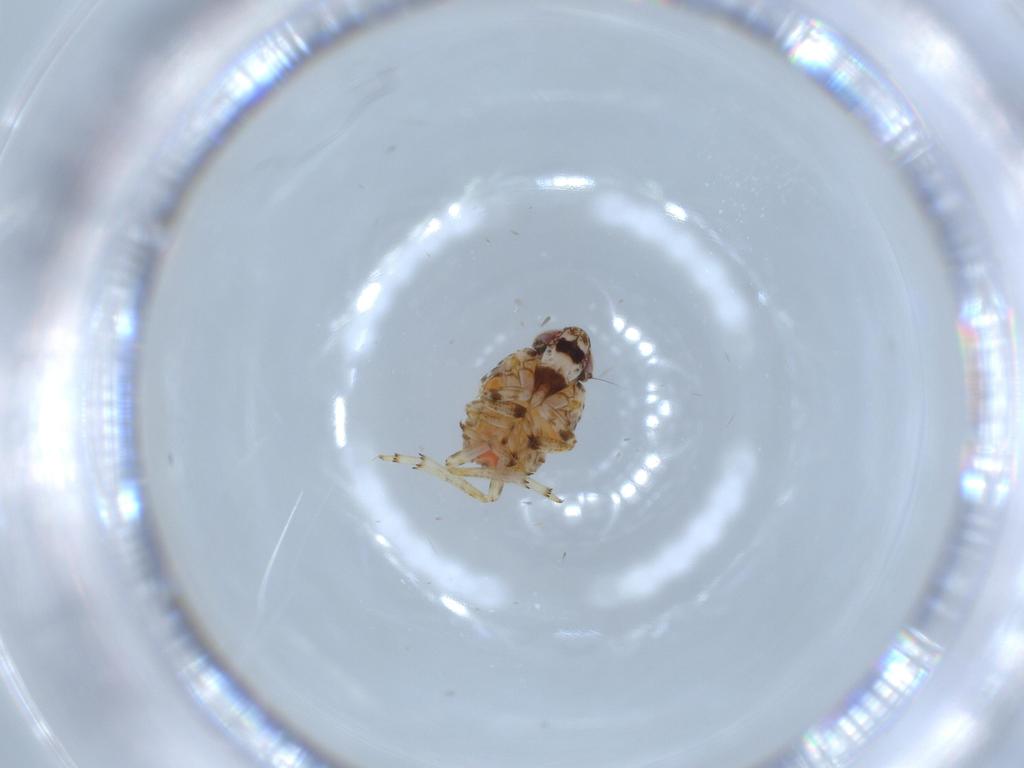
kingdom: Animalia
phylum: Arthropoda
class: Insecta
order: Hemiptera
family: Issidae
